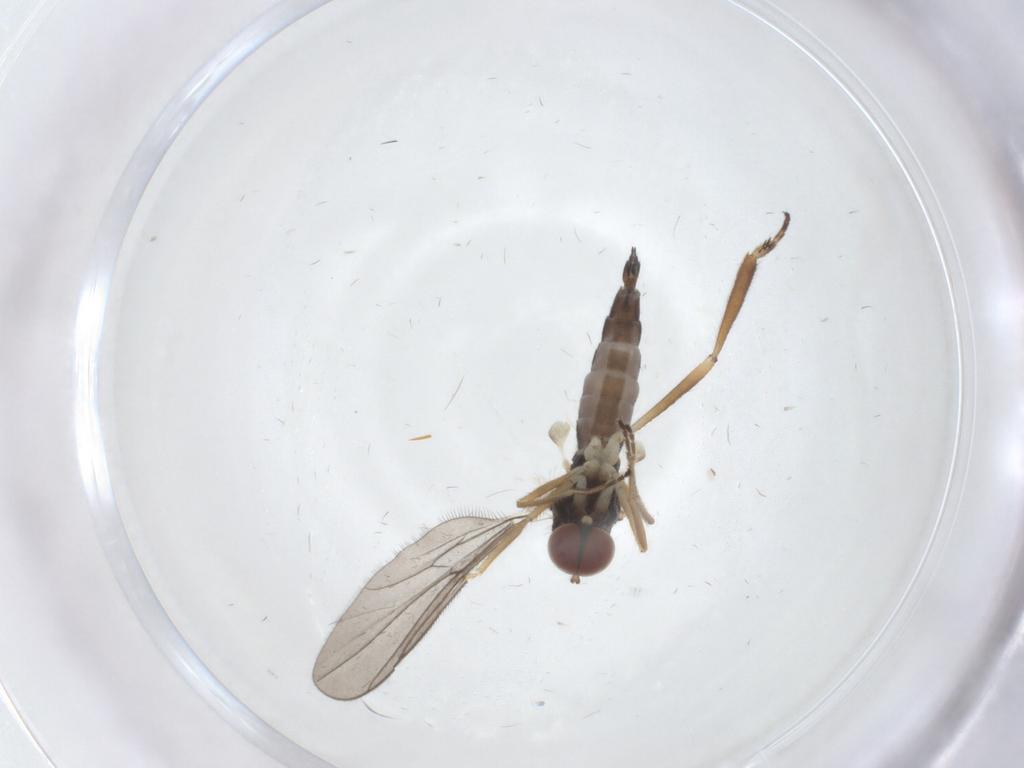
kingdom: Animalia
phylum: Arthropoda
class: Insecta
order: Diptera
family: Hybotidae
